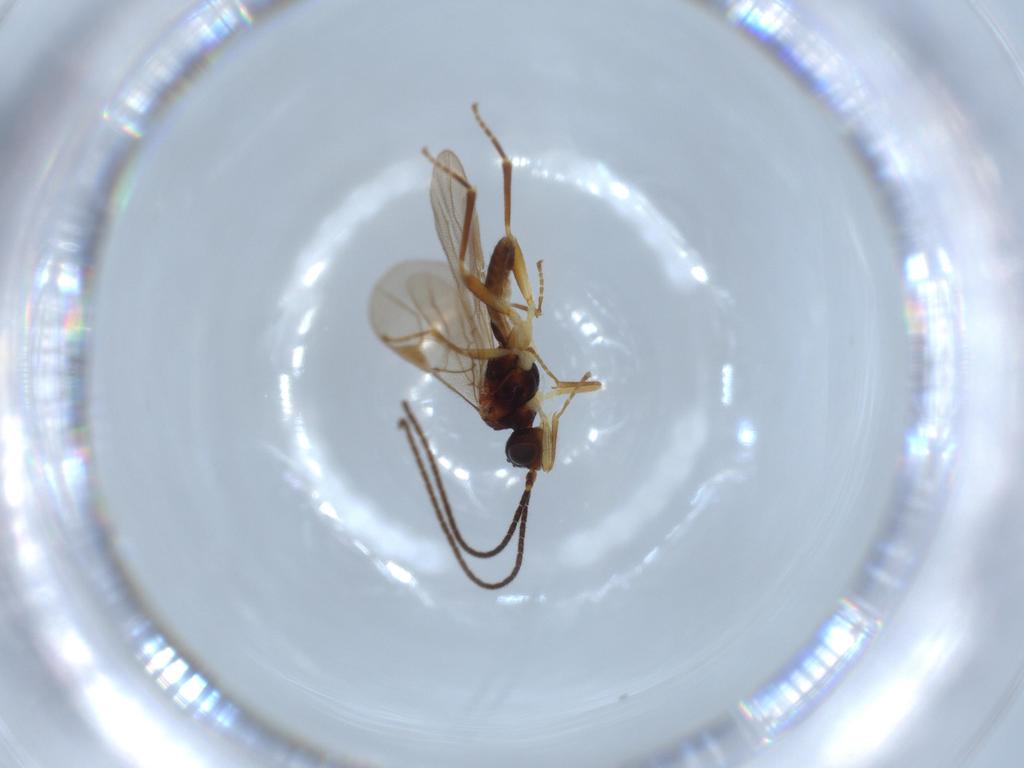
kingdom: Animalia
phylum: Arthropoda
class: Insecta
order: Hymenoptera
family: Braconidae
